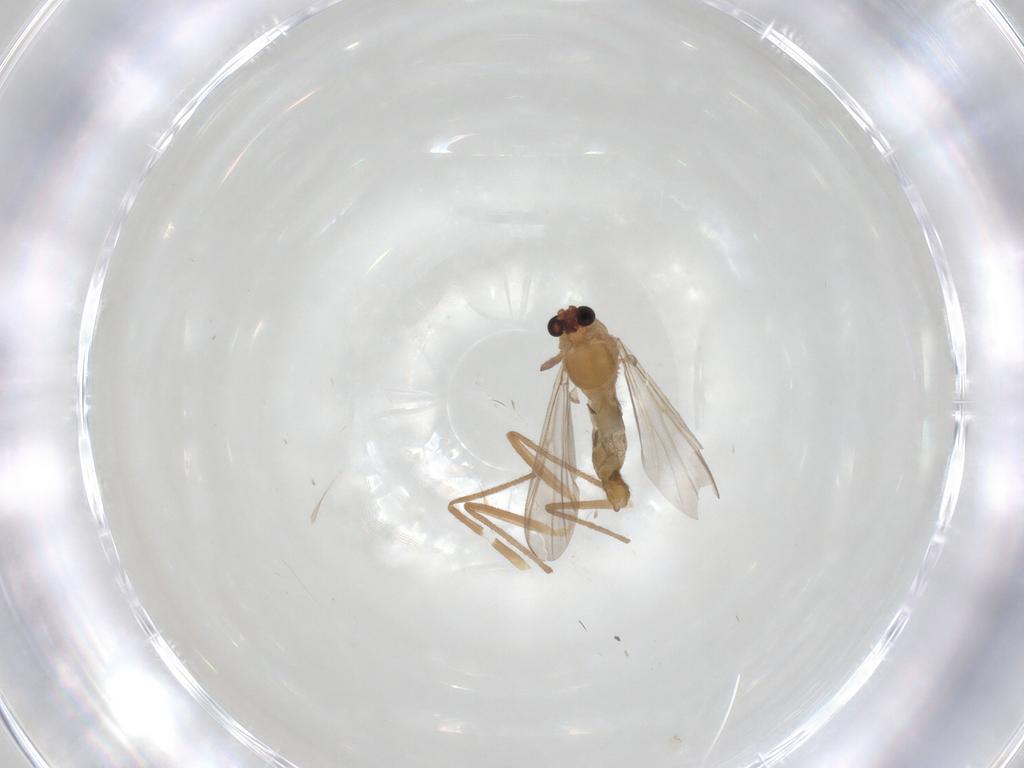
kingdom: Animalia
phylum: Arthropoda
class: Insecta
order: Diptera
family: Chironomidae
